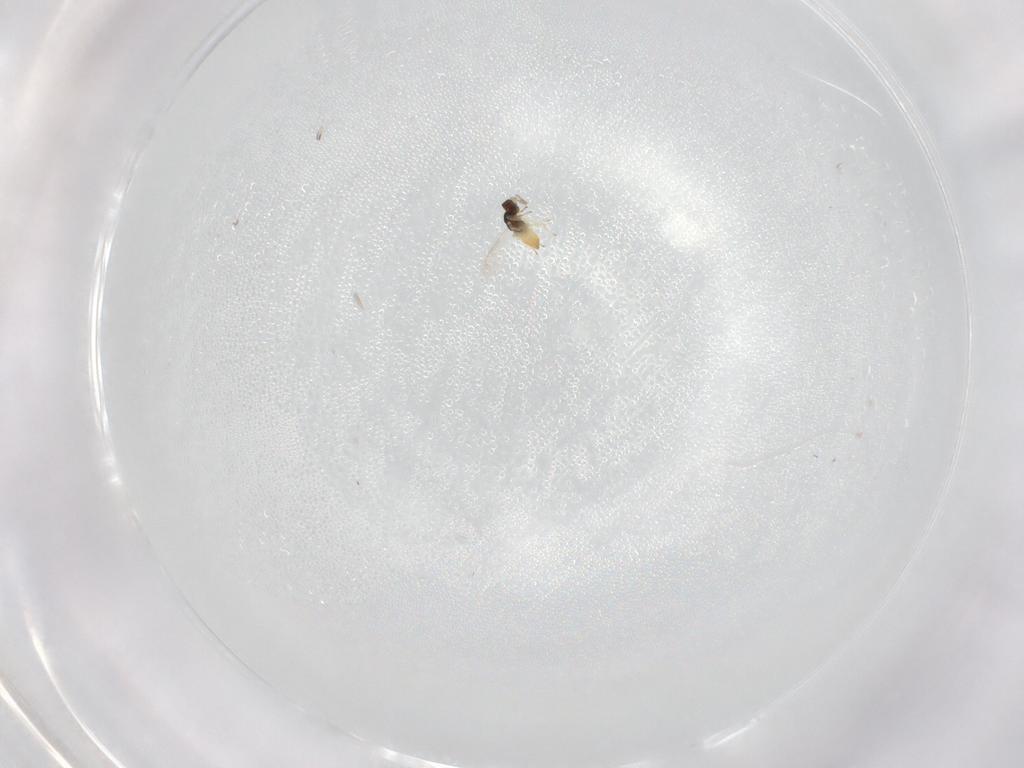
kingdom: Animalia
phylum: Arthropoda
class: Insecta
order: Hymenoptera
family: Eulophidae
